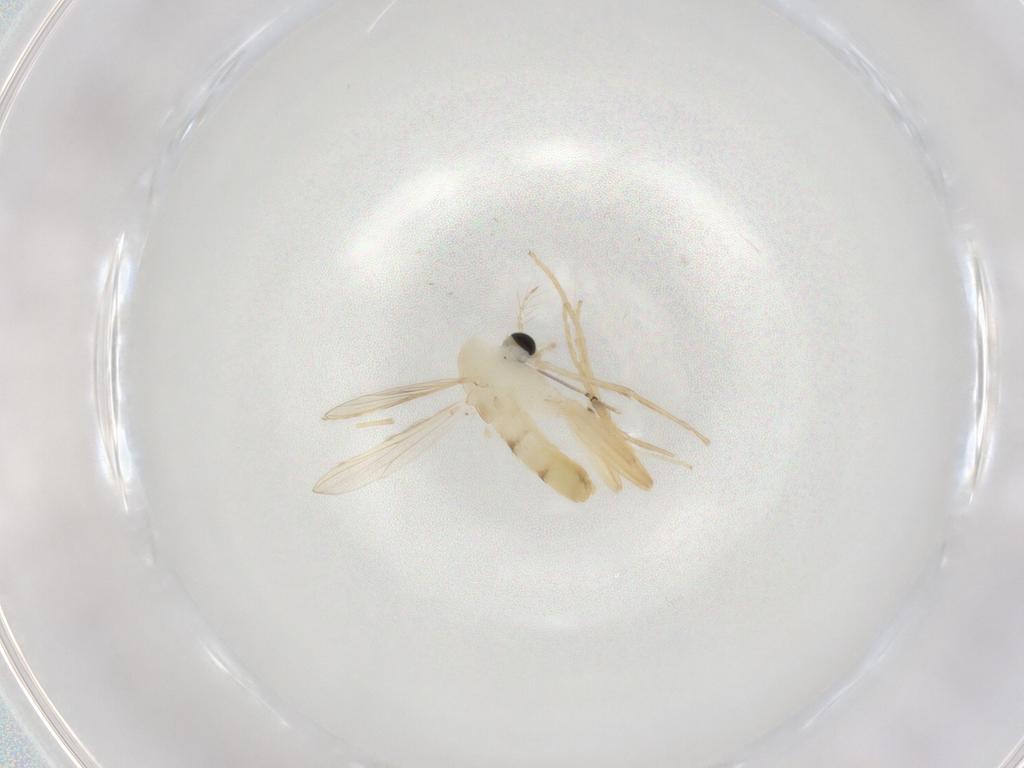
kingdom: Animalia
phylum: Arthropoda
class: Insecta
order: Diptera
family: Chironomidae
